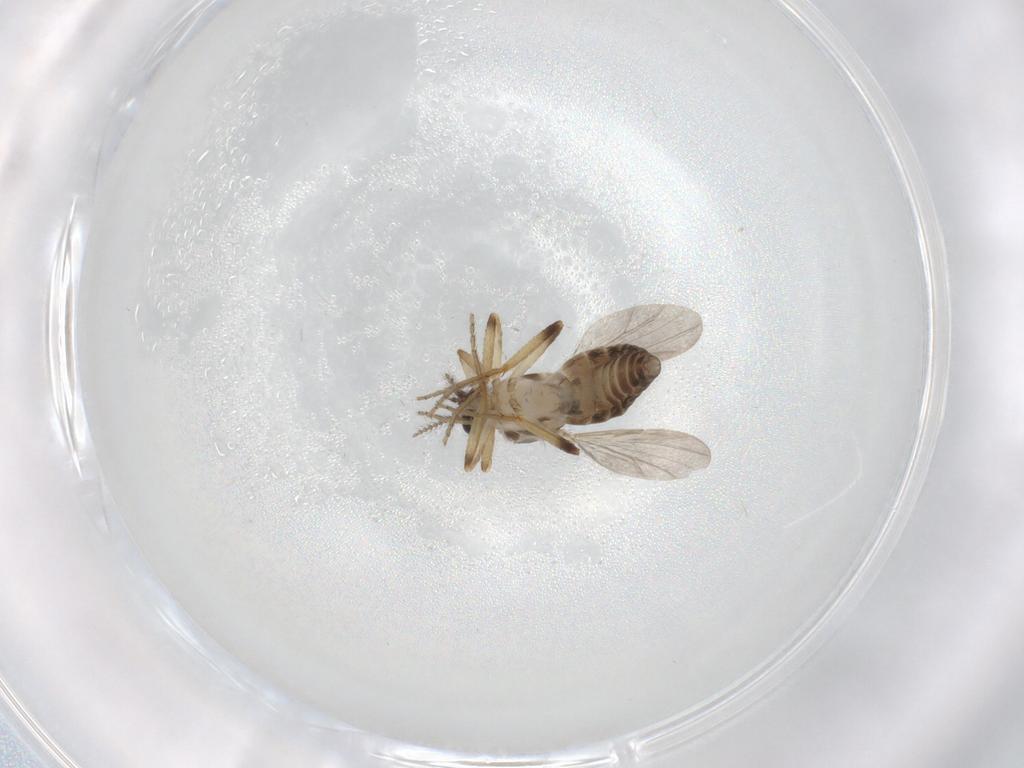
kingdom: Animalia
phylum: Arthropoda
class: Insecta
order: Diptera
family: Ceratopogonidae
